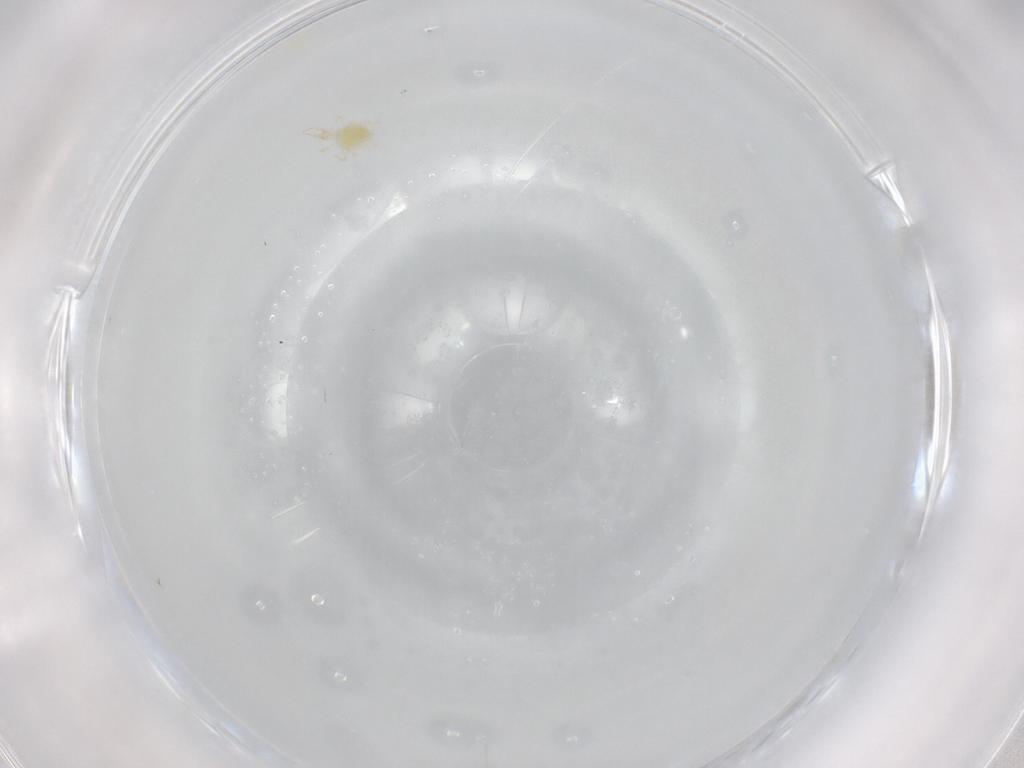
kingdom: Animalia
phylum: Arthropoda
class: Arachnida
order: Trombidiformes
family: Cunaxidae
